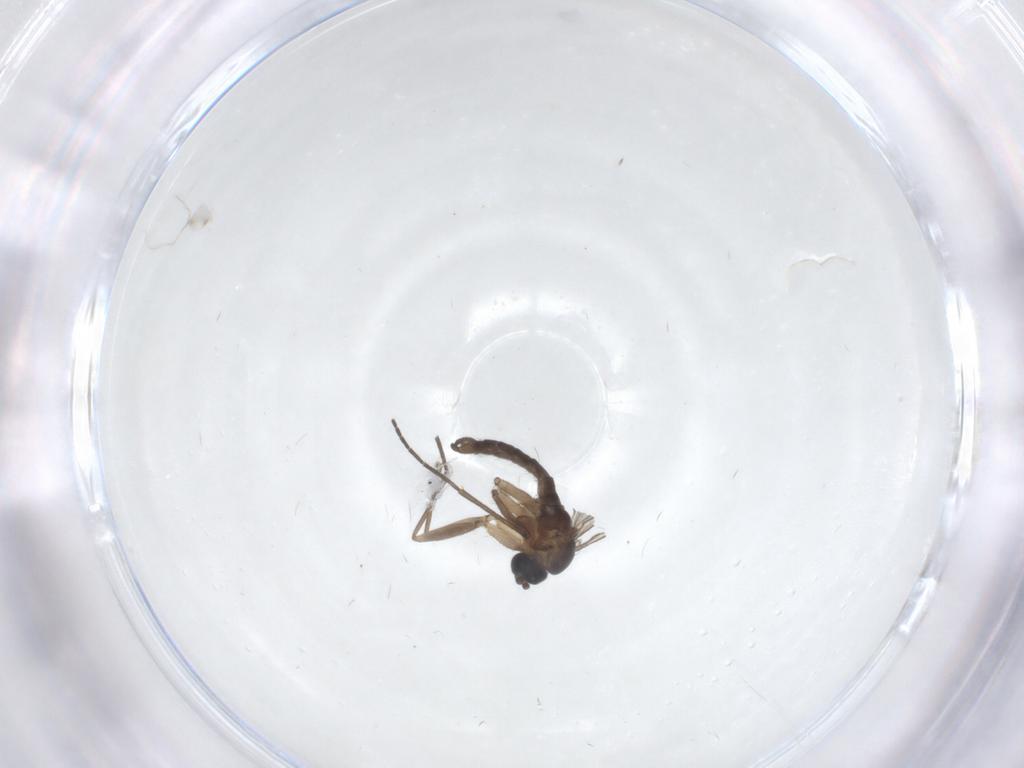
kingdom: Animalia
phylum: Arthropoda
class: Insecta
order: Diptera
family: Sciaridae
